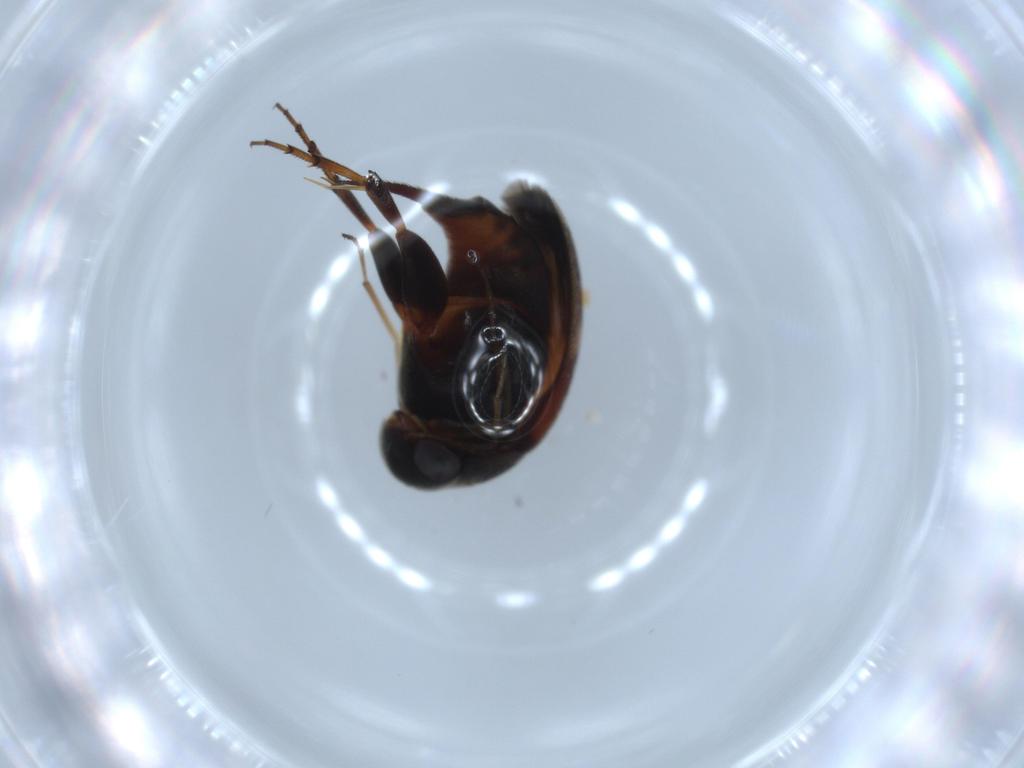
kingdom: Animalia
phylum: Arthropoda
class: Insecta
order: Coleoptera
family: Mordellidae
